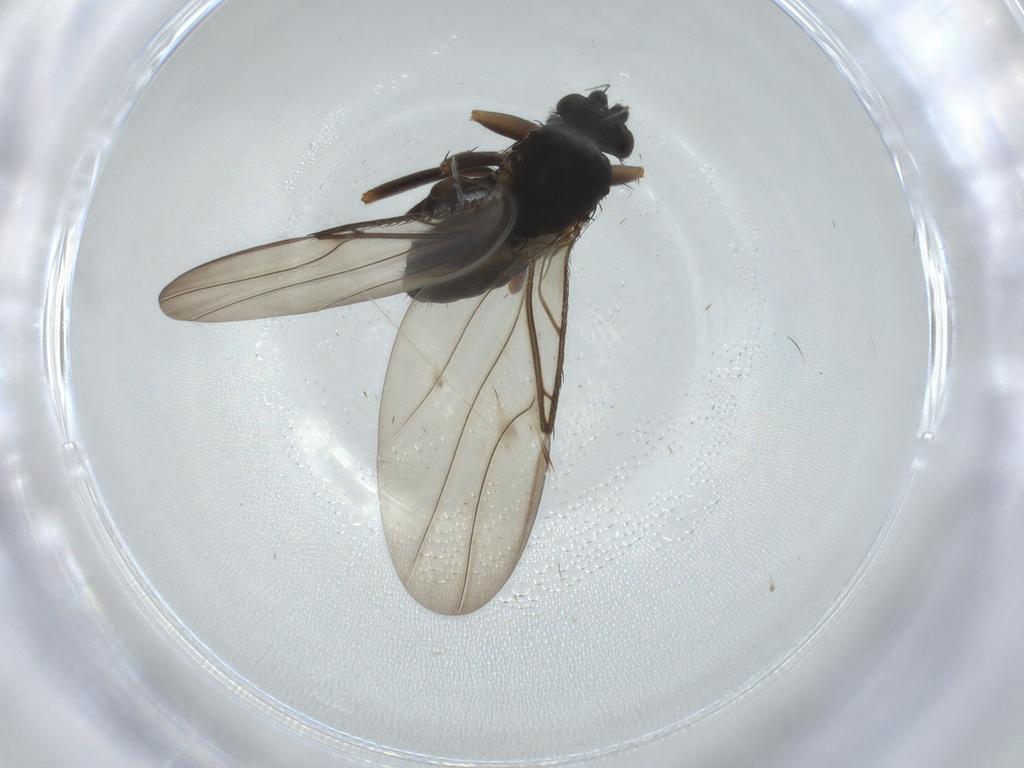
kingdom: Animalia
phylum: Arthropoda
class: Insecta
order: Diptera
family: Phoridae
